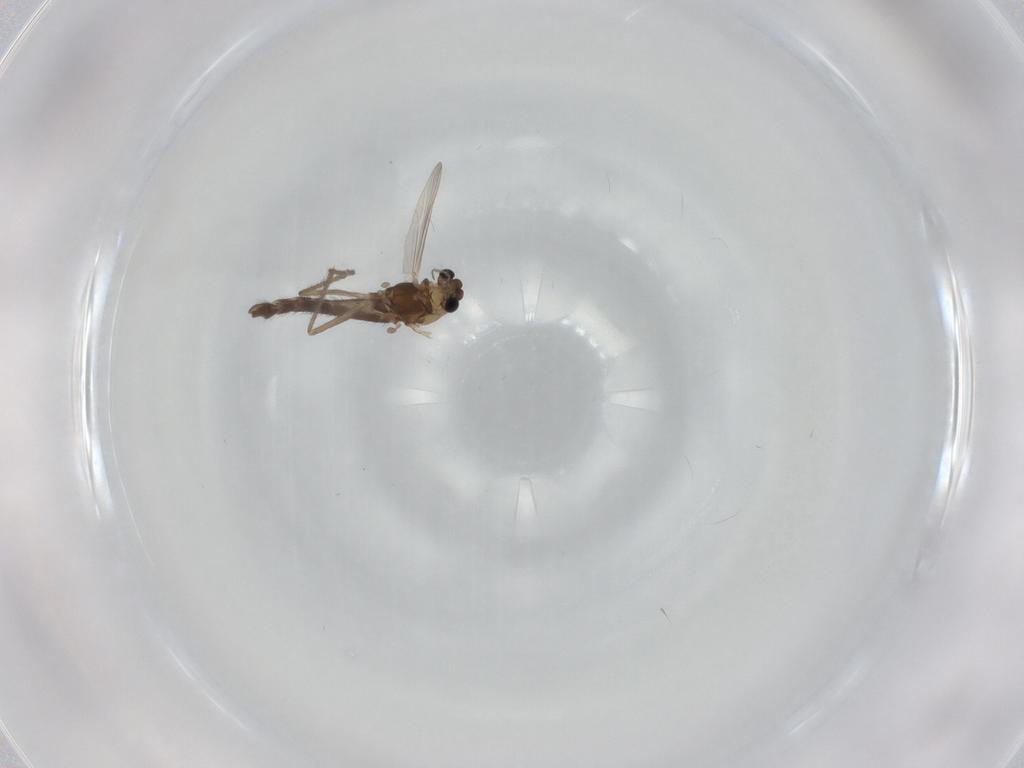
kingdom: Animalia
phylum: Arthropoda
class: Insecta
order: Diptera
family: Chironomidae
